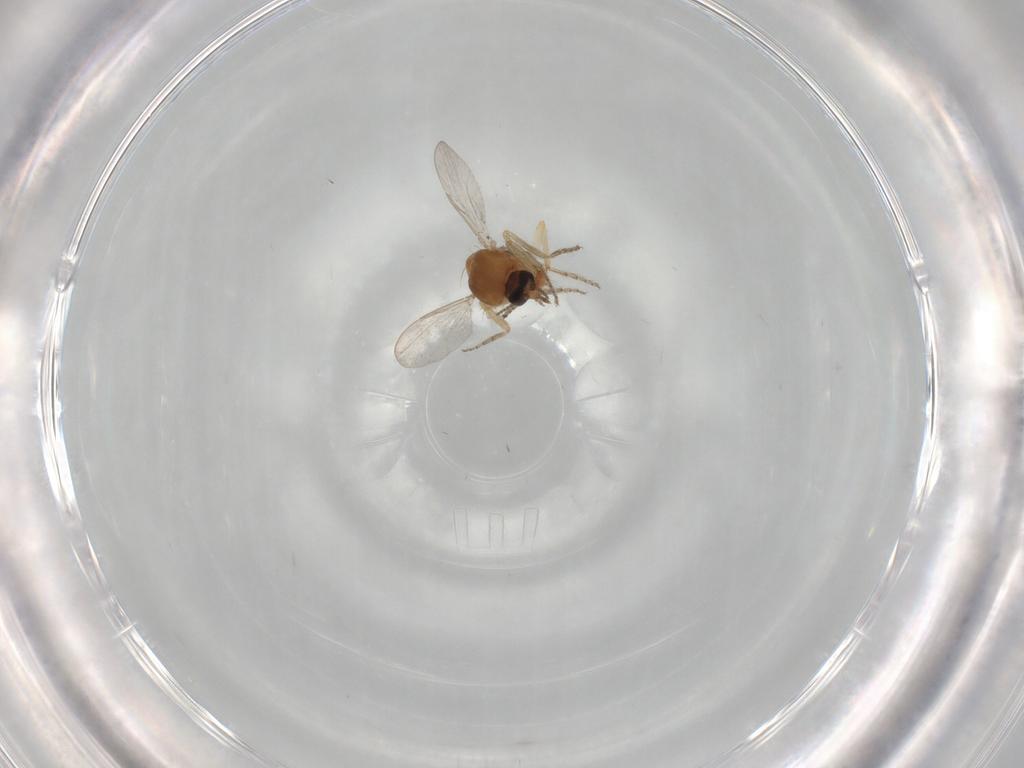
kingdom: Animalia
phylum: Arthropoda
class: Insecta
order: Diptera
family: Ceratopogonidae
